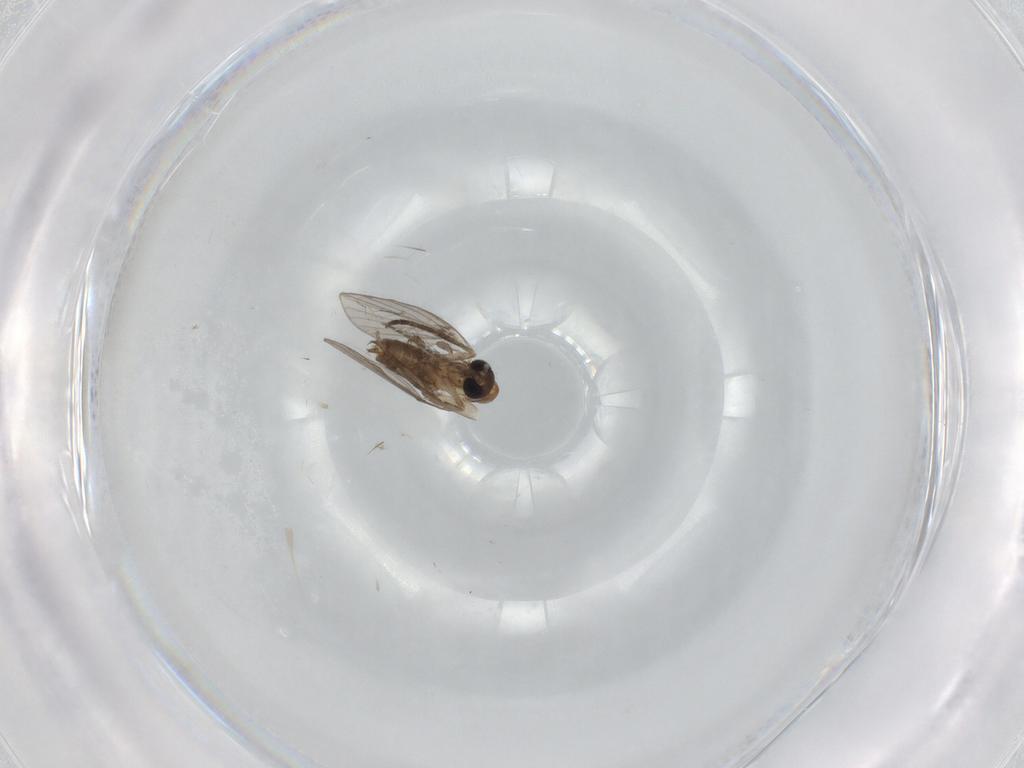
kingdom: Animalia
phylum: Arthropoda
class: Insecta
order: Diptera
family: Phoridae
